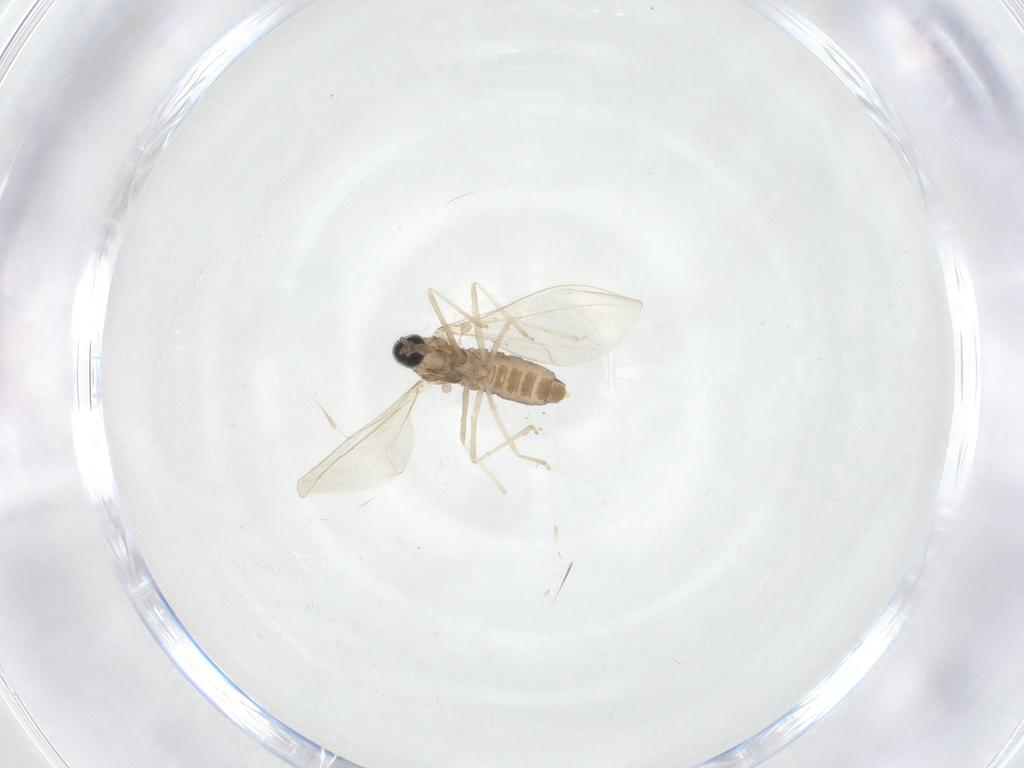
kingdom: Animalia
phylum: Arthropoda
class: Insecta
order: Diptera
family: Cecidomyiidae
